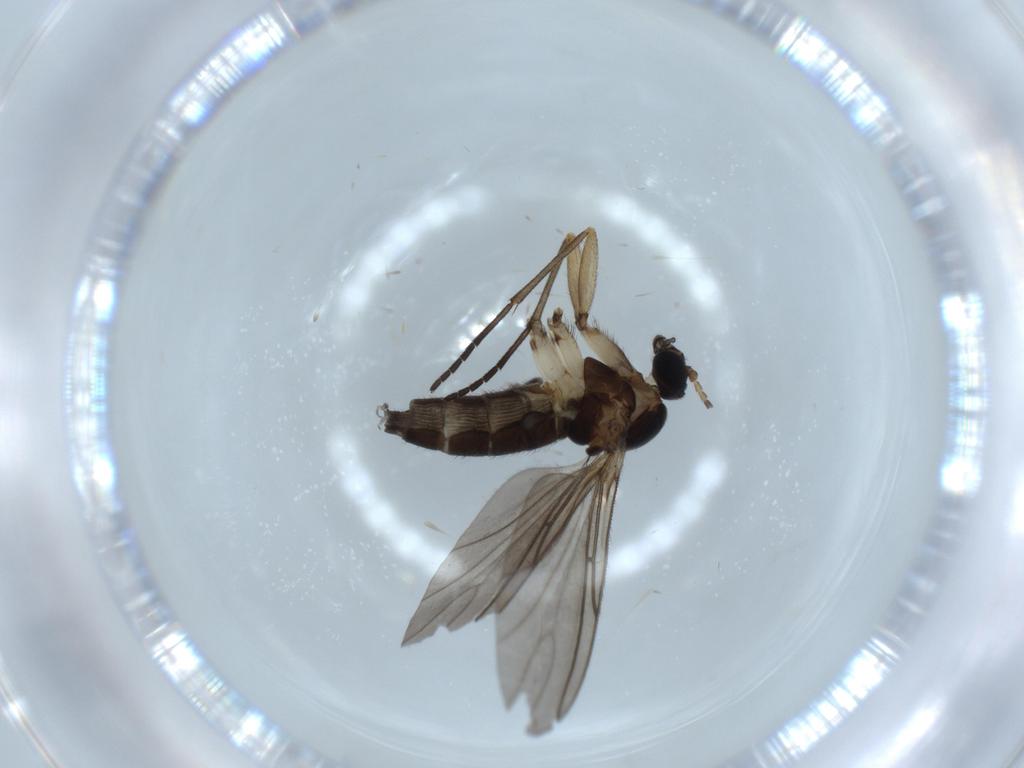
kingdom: Animalia
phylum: Arthropoda
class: Insecta
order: Diptera
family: Sciaridae
